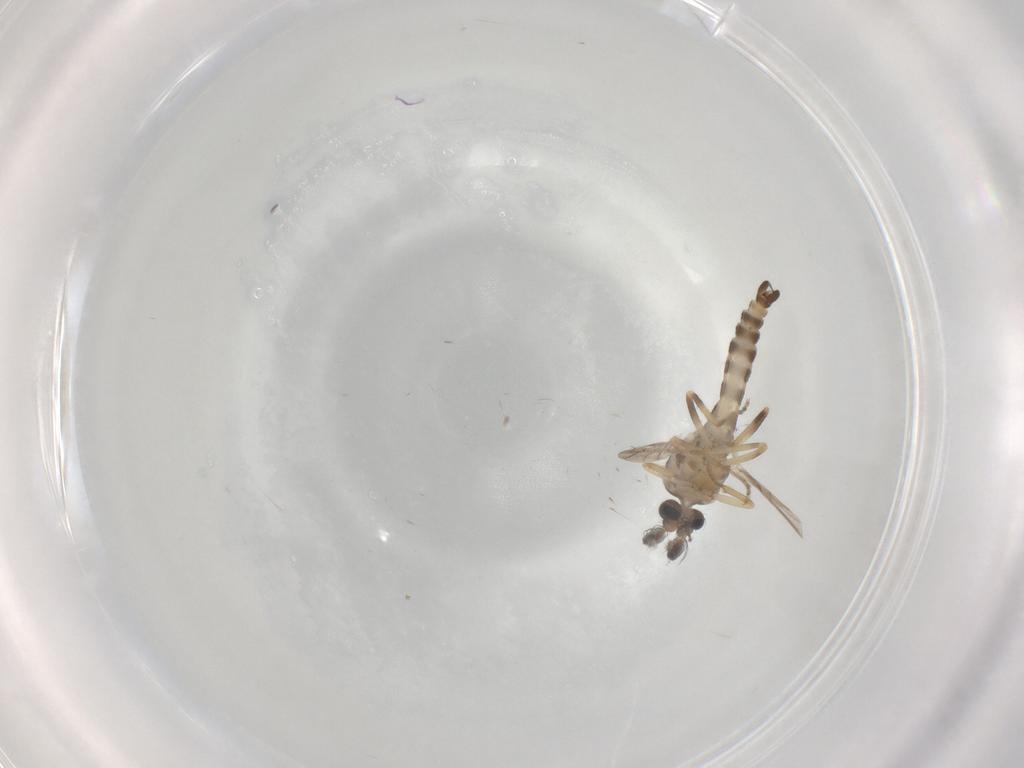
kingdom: Animalia
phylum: Arthropoda
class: Insecta
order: Diptera
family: Ceratopogonidae
